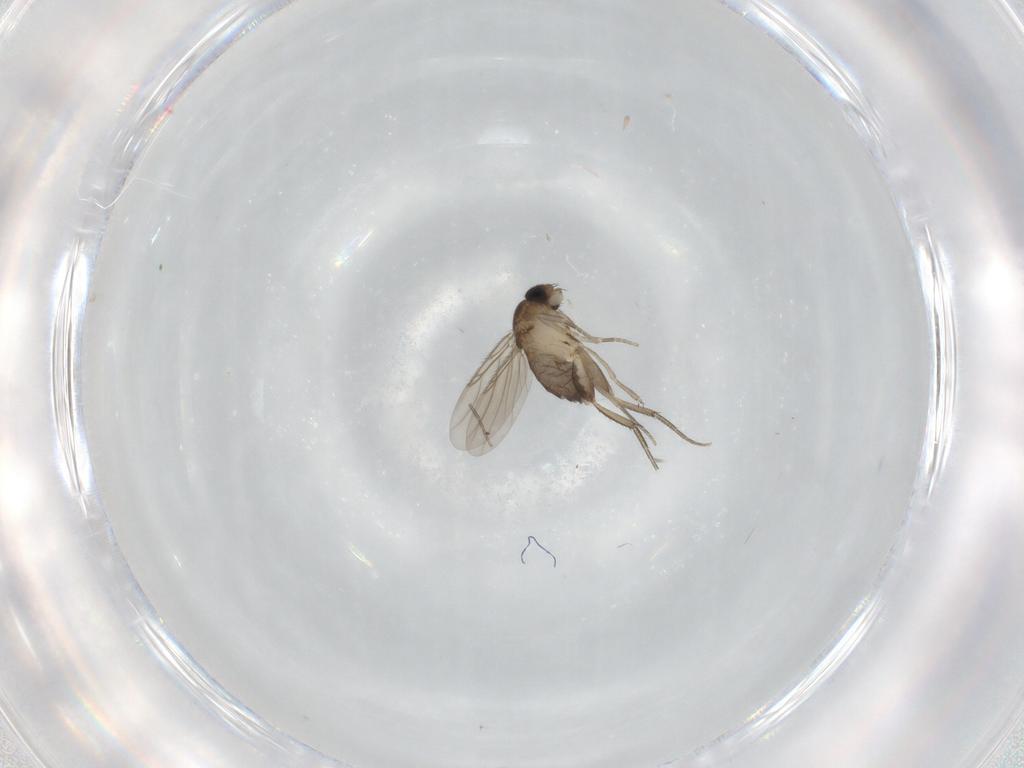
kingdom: Animalia
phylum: Arthropoda
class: Insecta
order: Diptera
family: Phoridae
